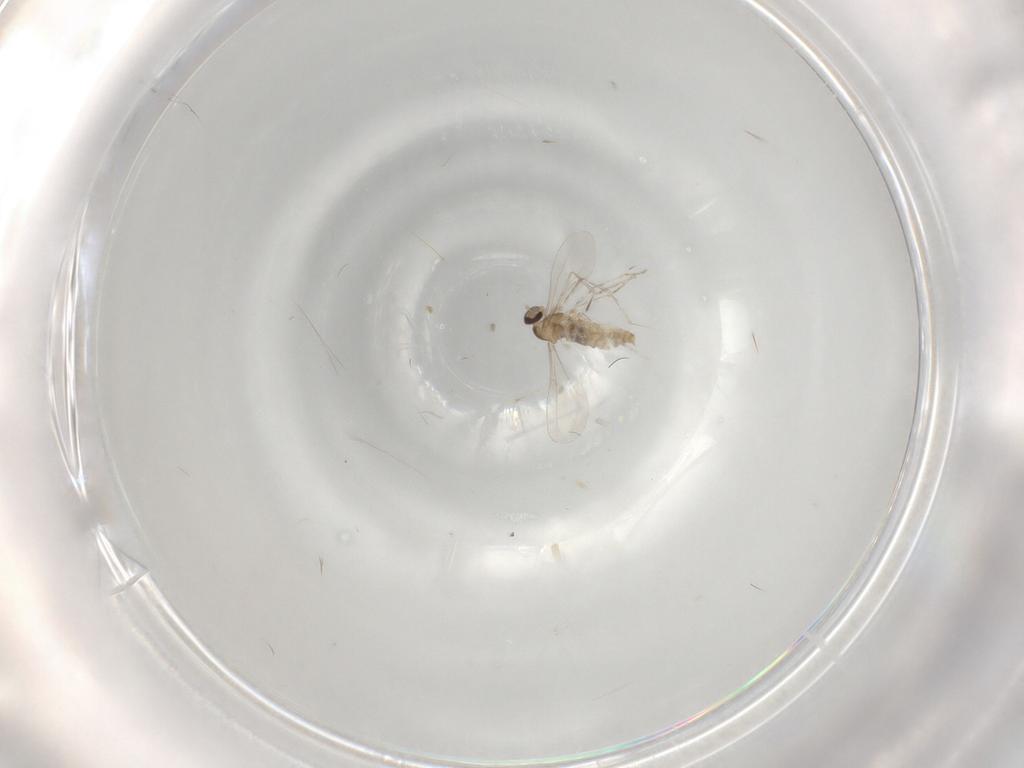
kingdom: Animalia
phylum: Arthropoda
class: Insecta
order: Diptera
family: Cecidomyiidae
